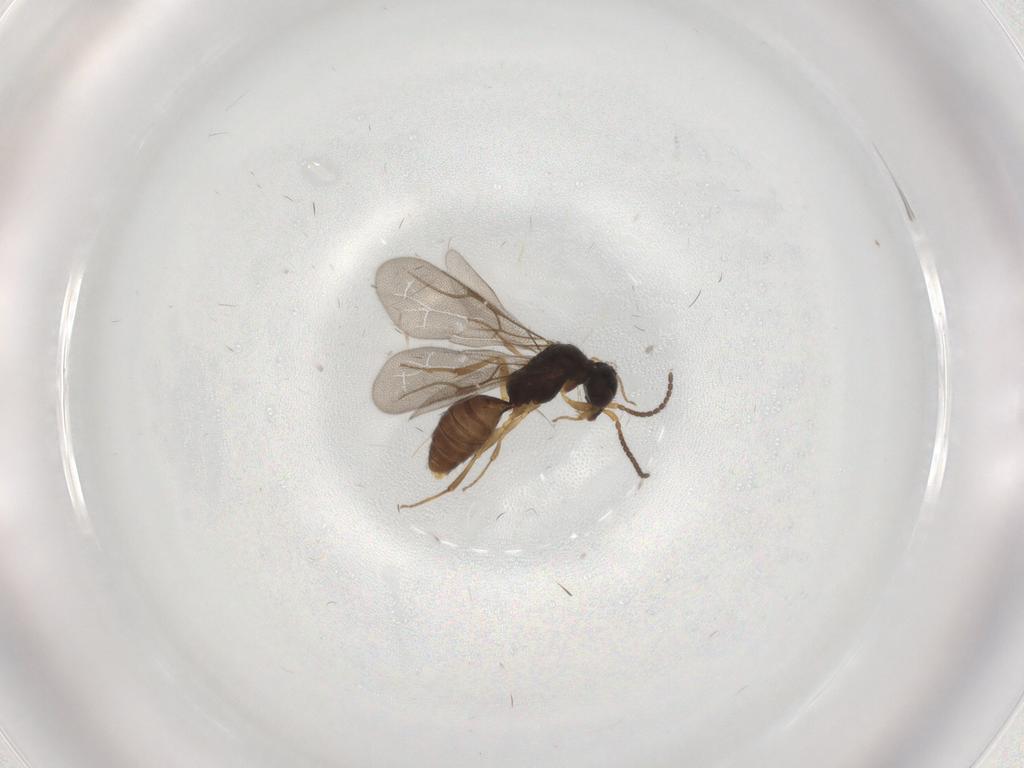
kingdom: Animalia
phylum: Arthropoda
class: Insecta
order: Hymenoptera
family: Bethylidae
